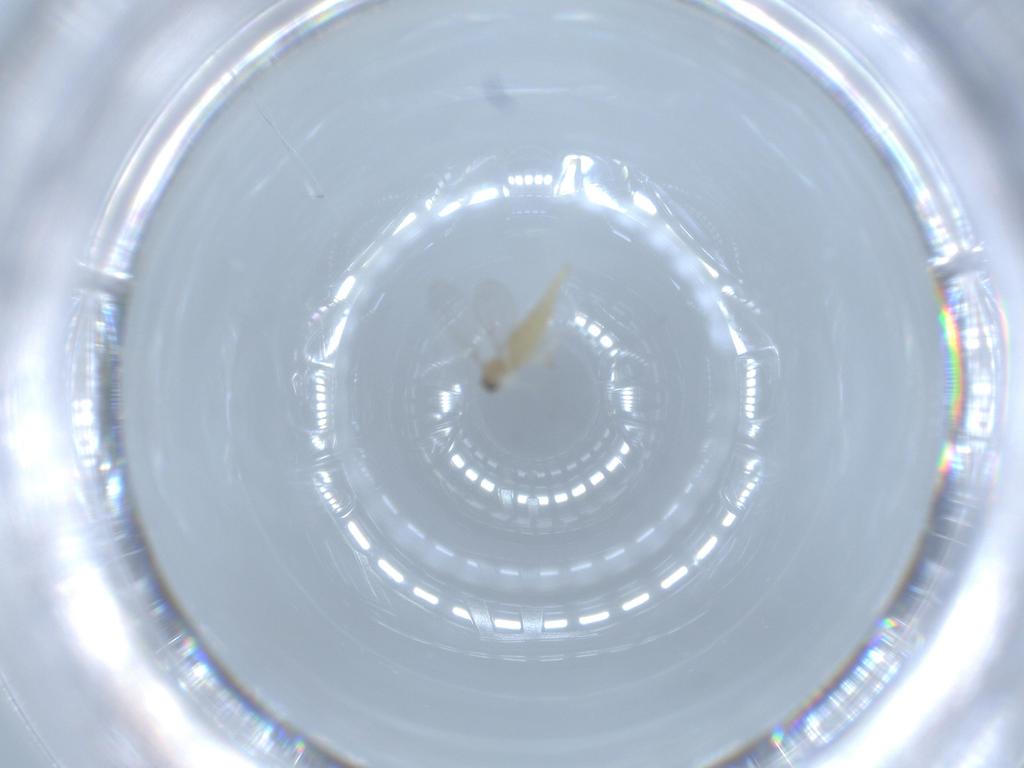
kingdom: Animalia
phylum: Arthropoda
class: Insecta
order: Diptera
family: Cecidomyiidae
